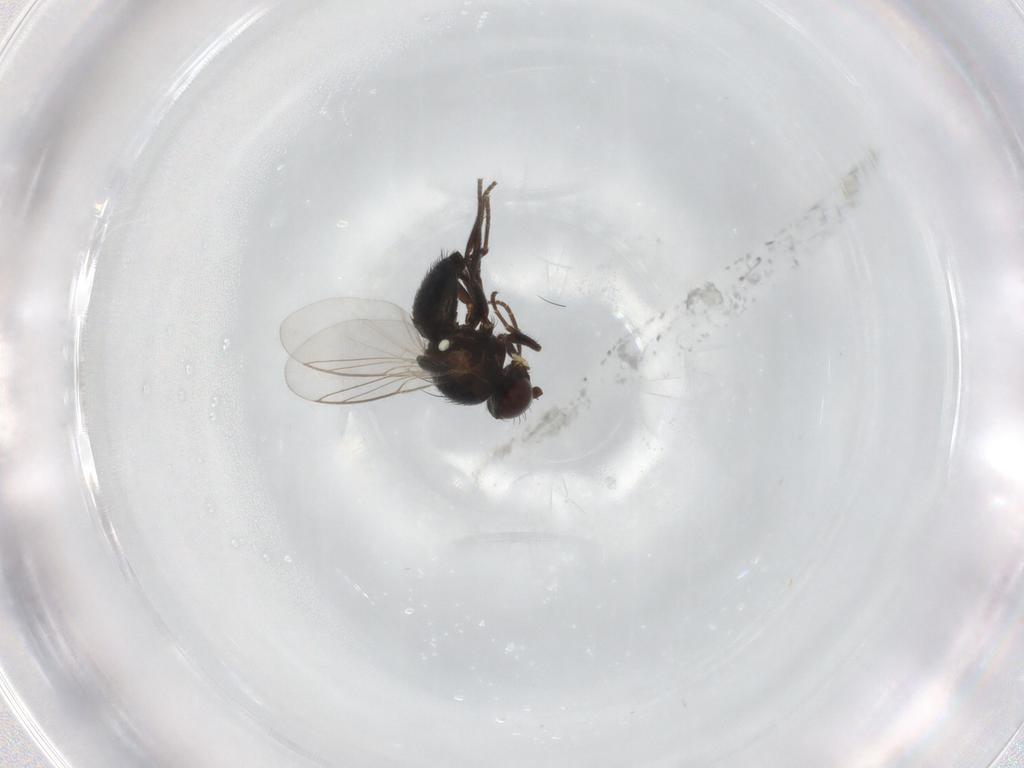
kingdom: Animalia
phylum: Arthropoda
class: Insecta
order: Diptera
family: Agromyzidae
